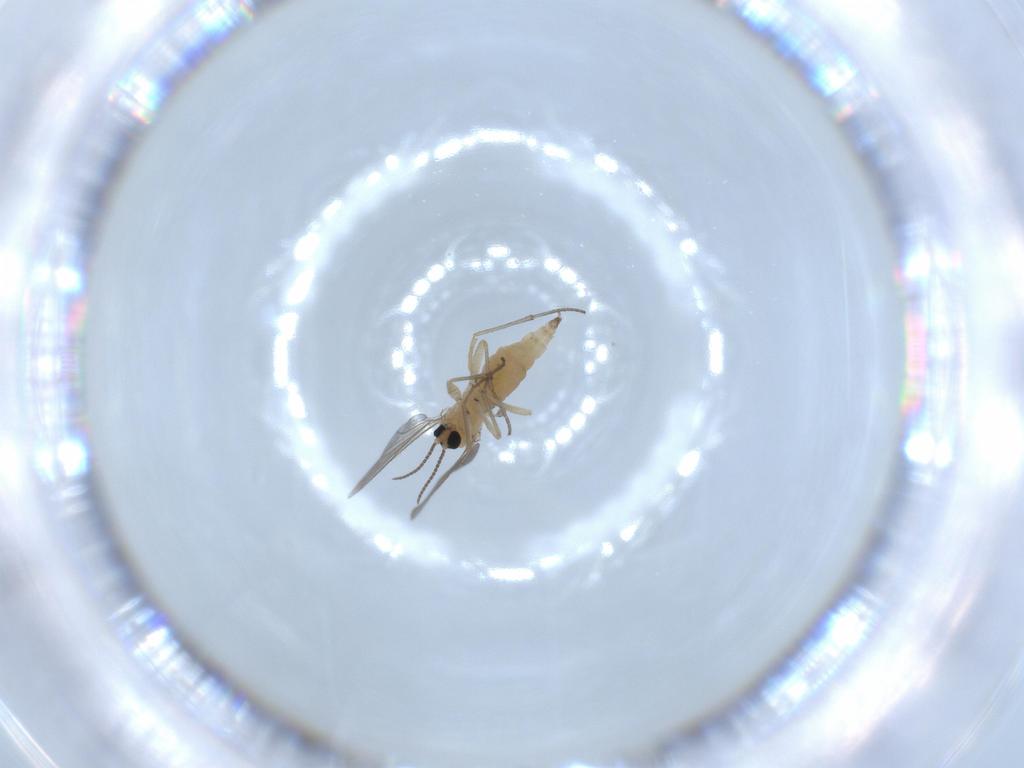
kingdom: Animalia
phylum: Arthropoda
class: Insecta
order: Diptera
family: Sciaridae
